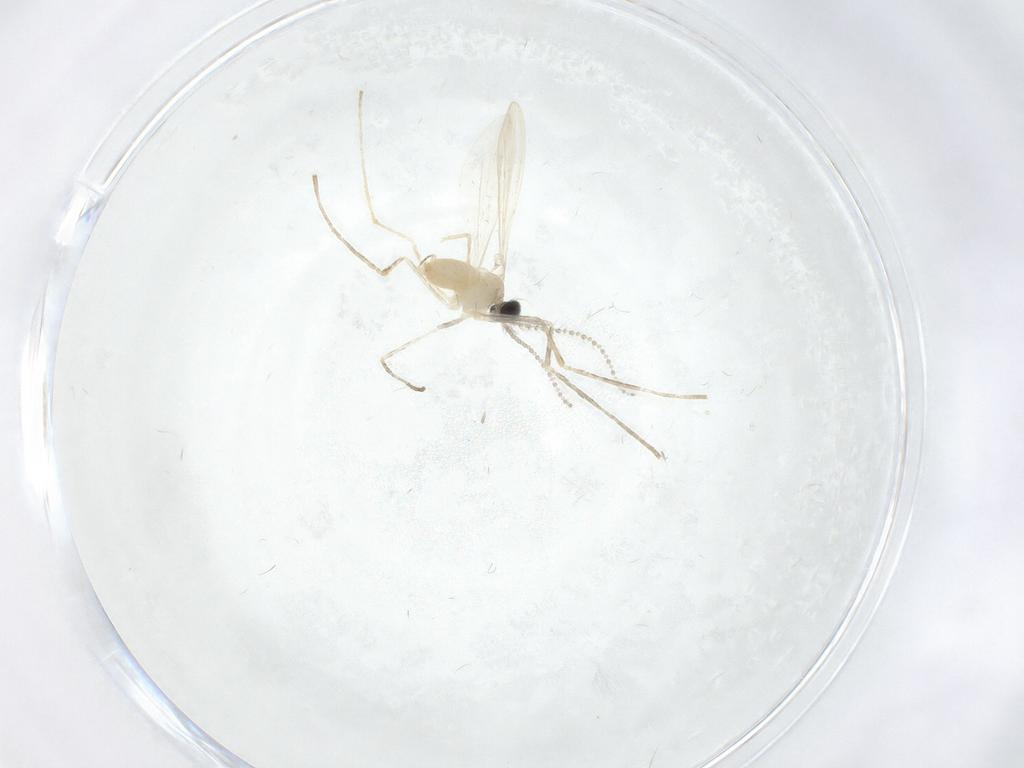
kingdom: Animalia
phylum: Arthropoda
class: Insecta
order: Diptera
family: Cecidomyiidae
